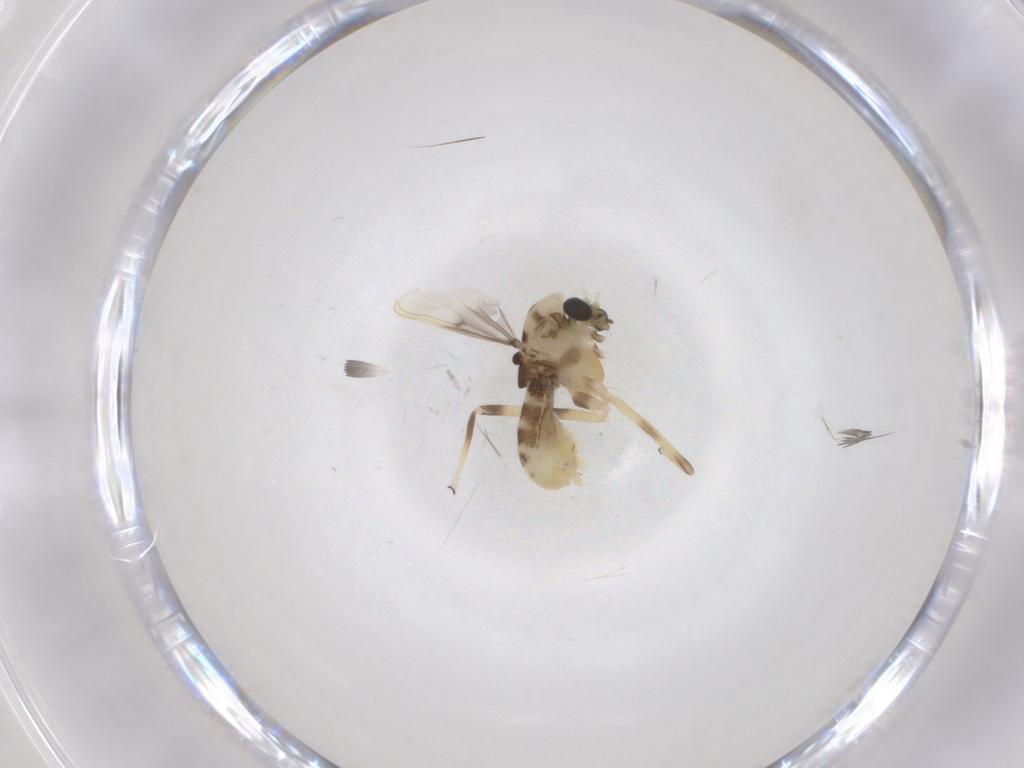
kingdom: Animalia
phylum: Arthropoda
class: Insecta
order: Diptera
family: Chironomidae
